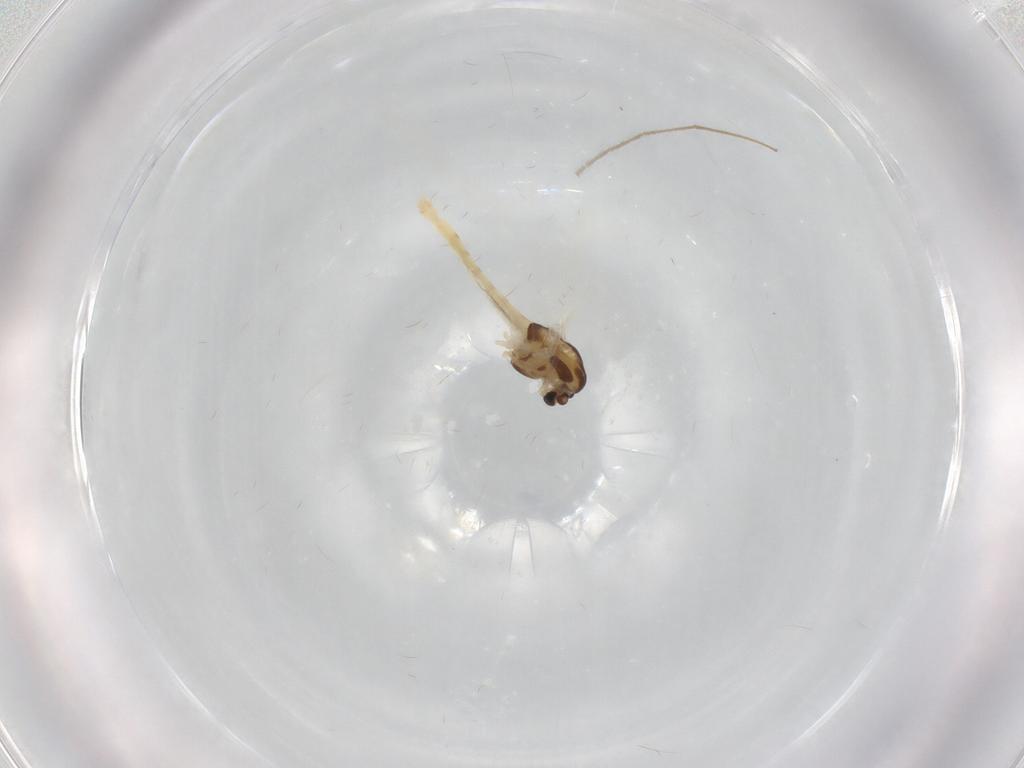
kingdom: Animalia
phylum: Arthropoda
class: Insecta
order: Diptera
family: Chironomidae
